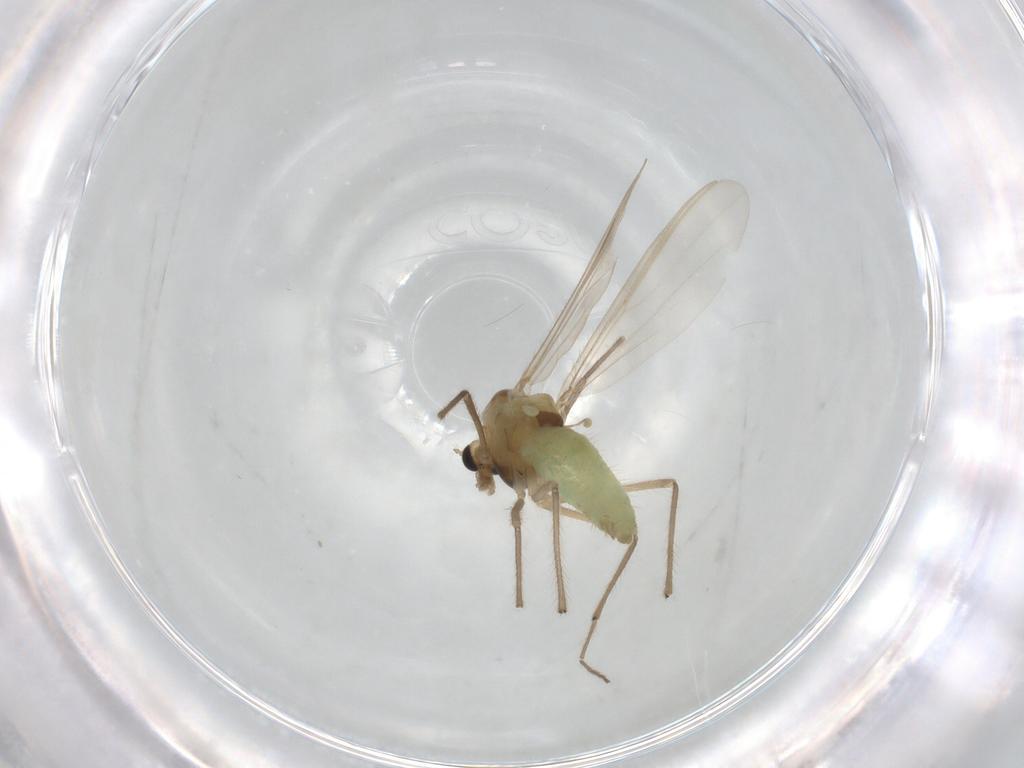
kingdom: Animalia
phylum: Arthropoda
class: Insecta
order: Diptera
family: Chironomidae
